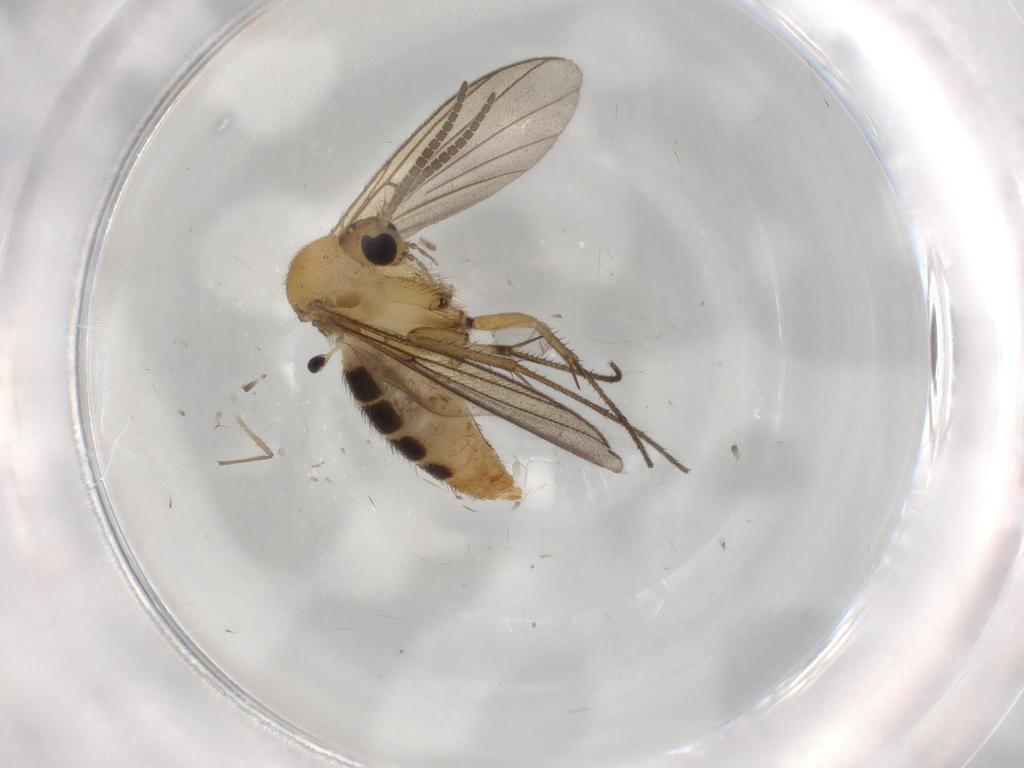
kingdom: Animalia
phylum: Arthropoda
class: Insecta
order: Diptera
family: Mycetophilidae
